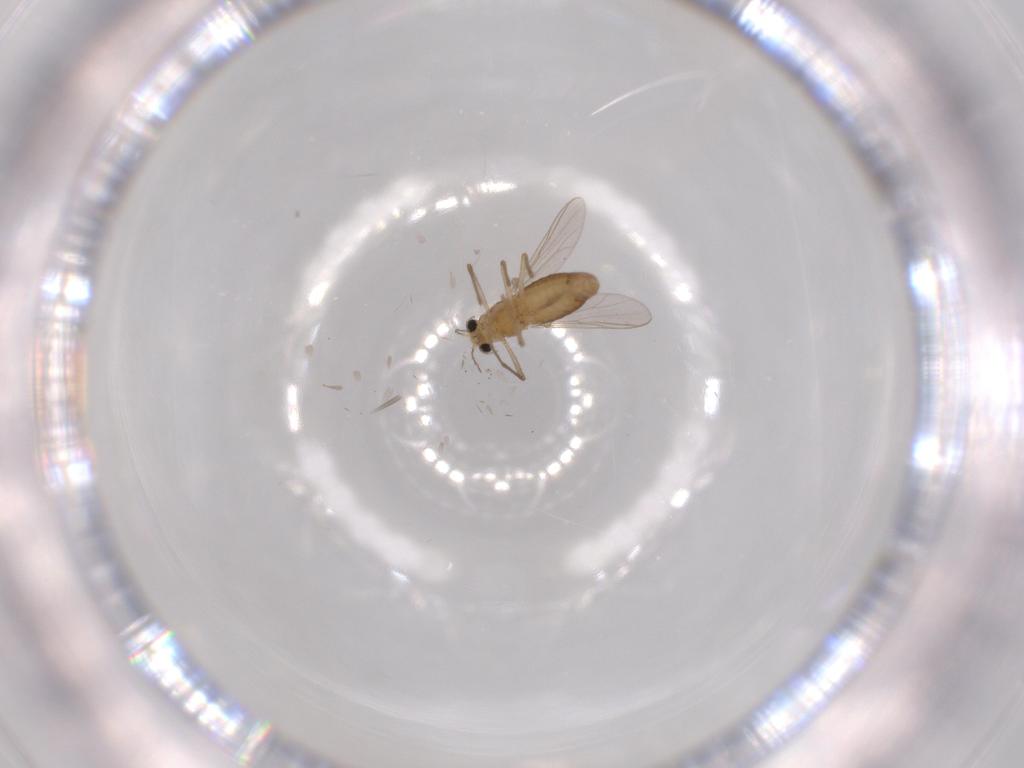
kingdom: Animalia
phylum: Arthropoda
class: Insecta
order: Diptera
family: Chironomidae
